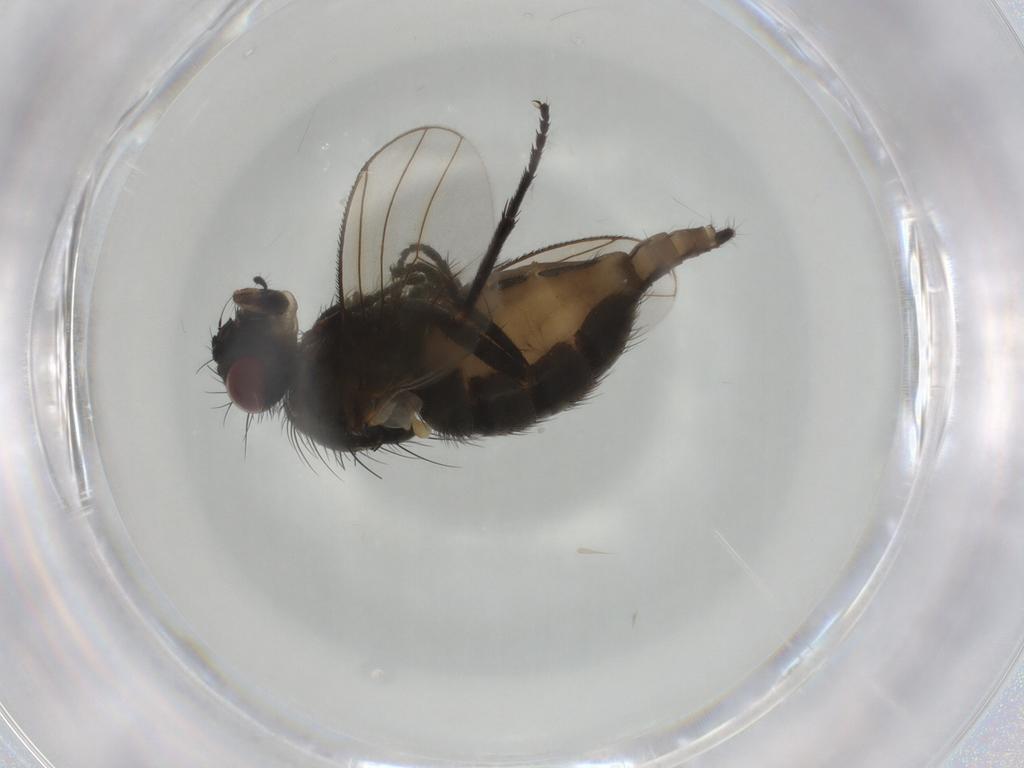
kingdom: Animalia
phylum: Arthropoda
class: Insecta
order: Diptera
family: Muscidae
